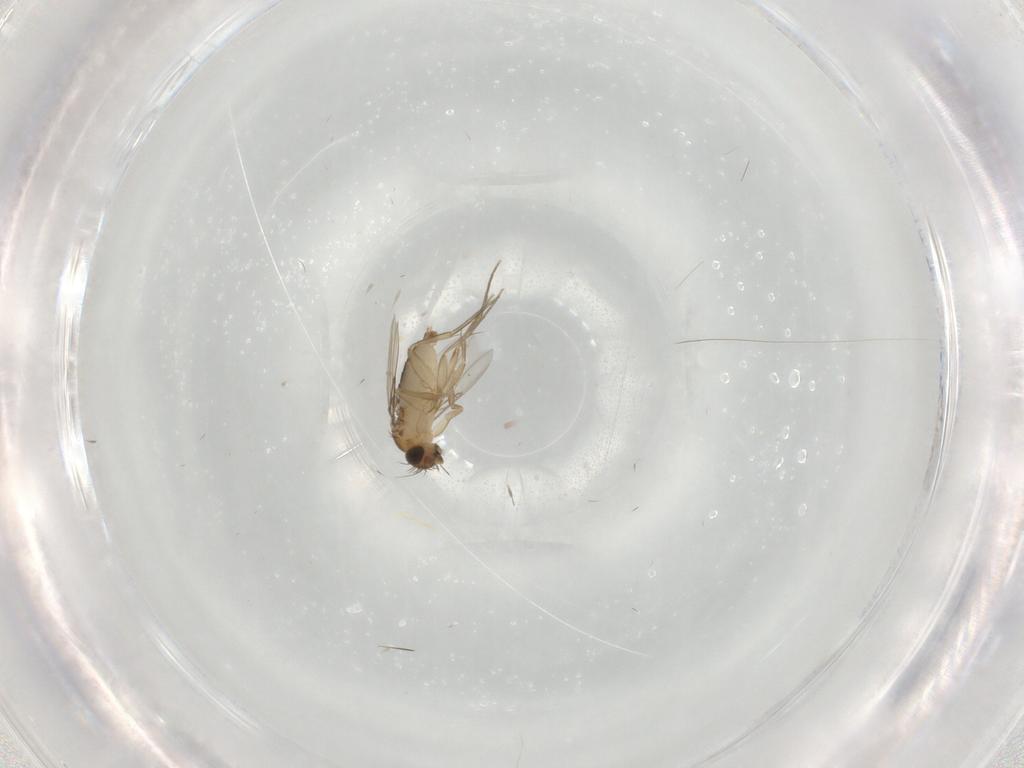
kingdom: Animalia
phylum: Arthropoda
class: Insecta
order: Diptera
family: Phoridae
